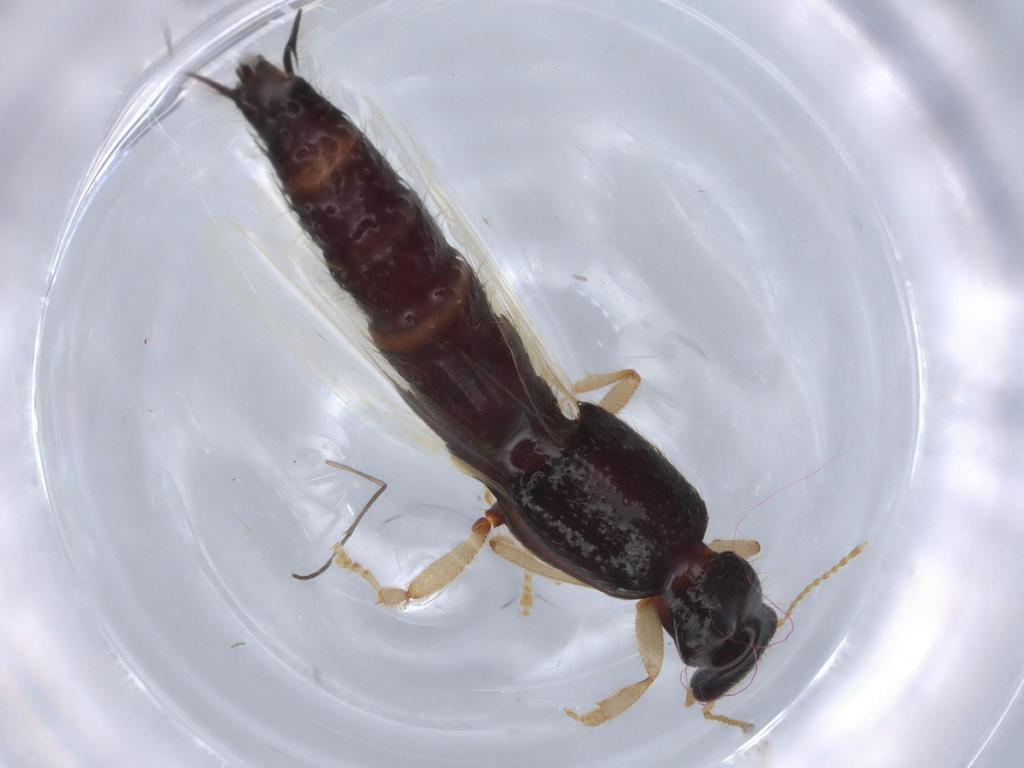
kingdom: Animalia
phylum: Arthropoda
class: Insecta
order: Coleoptera
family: Staphylinidae
